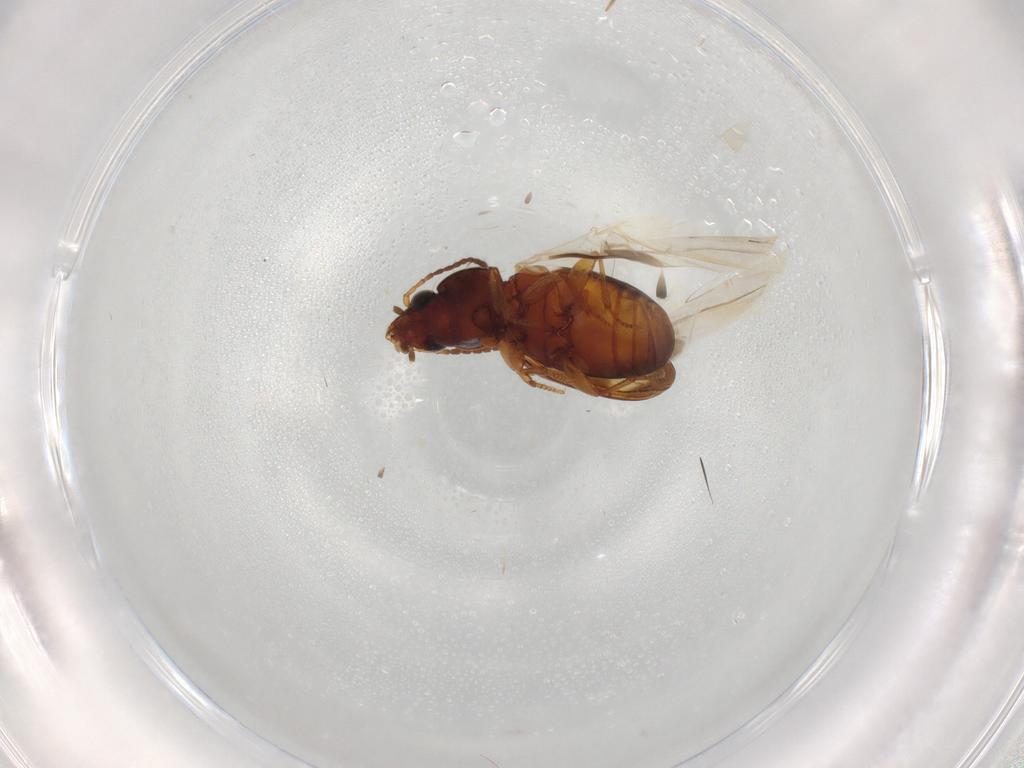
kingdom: Animalia
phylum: Arthropoda
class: Insecta
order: Coleoptera
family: Carabidae
